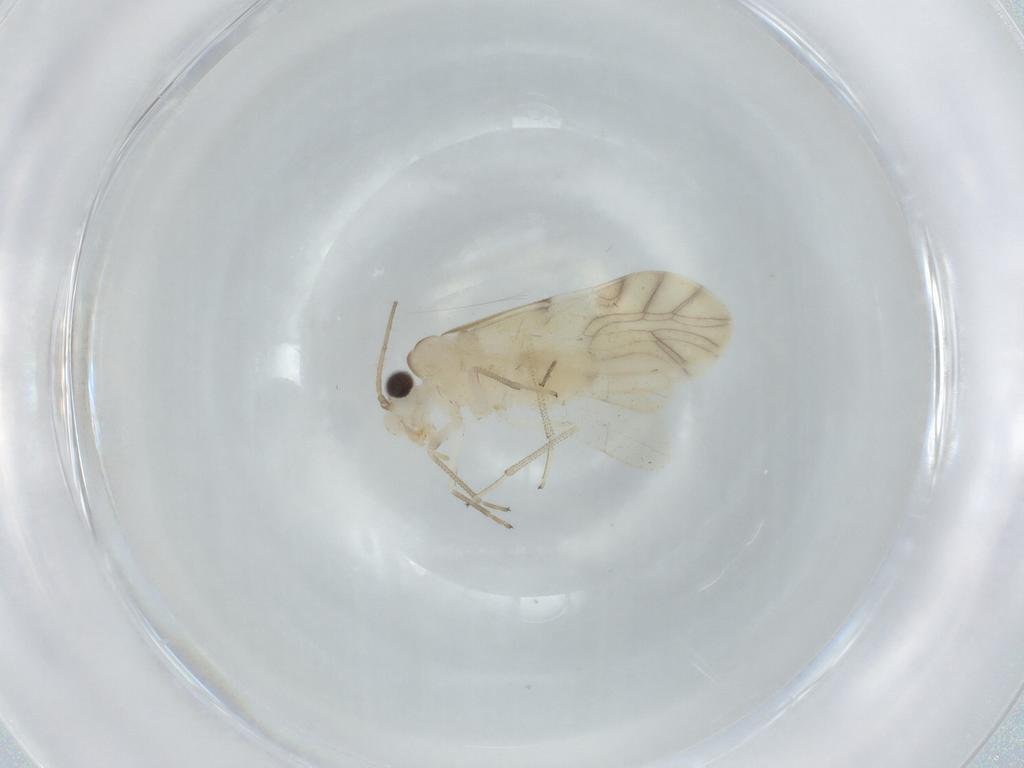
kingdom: Animalia
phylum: Arthropoda
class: Insecta
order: Psocodea
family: Caeciliusidae
